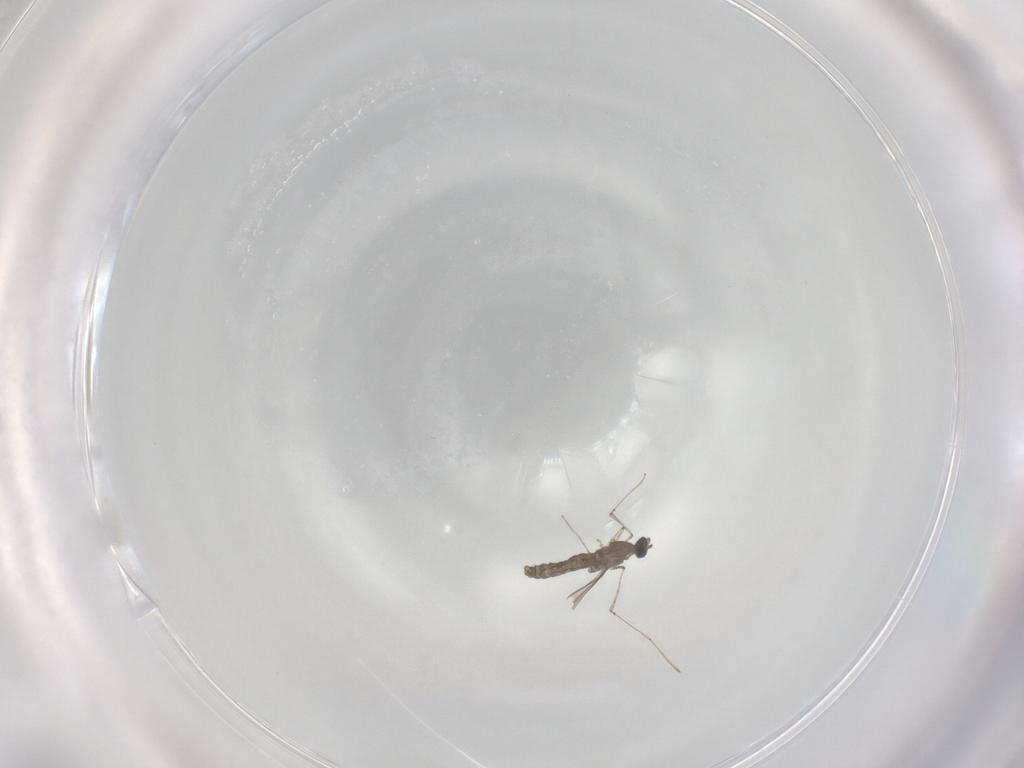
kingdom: Animalia
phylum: Arthropoda
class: Insecta
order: Diptera
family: Cecidomyiidae
